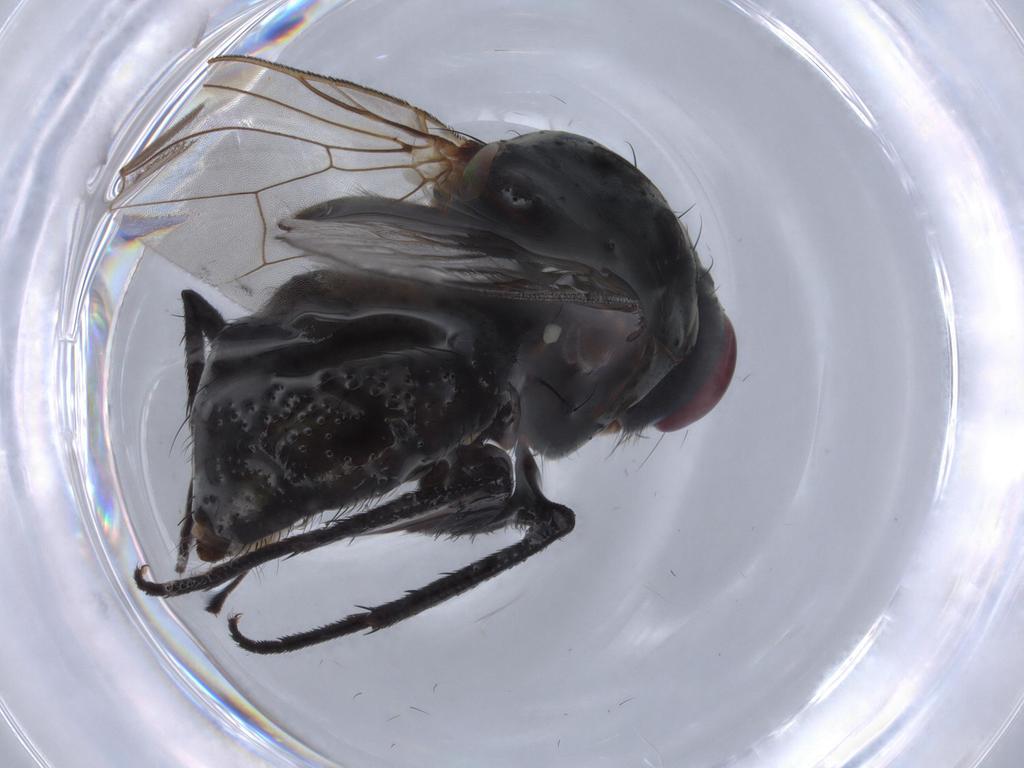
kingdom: Animalia
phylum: Arthropoda
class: Insecta
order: Diptera
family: Anthomyiidae
